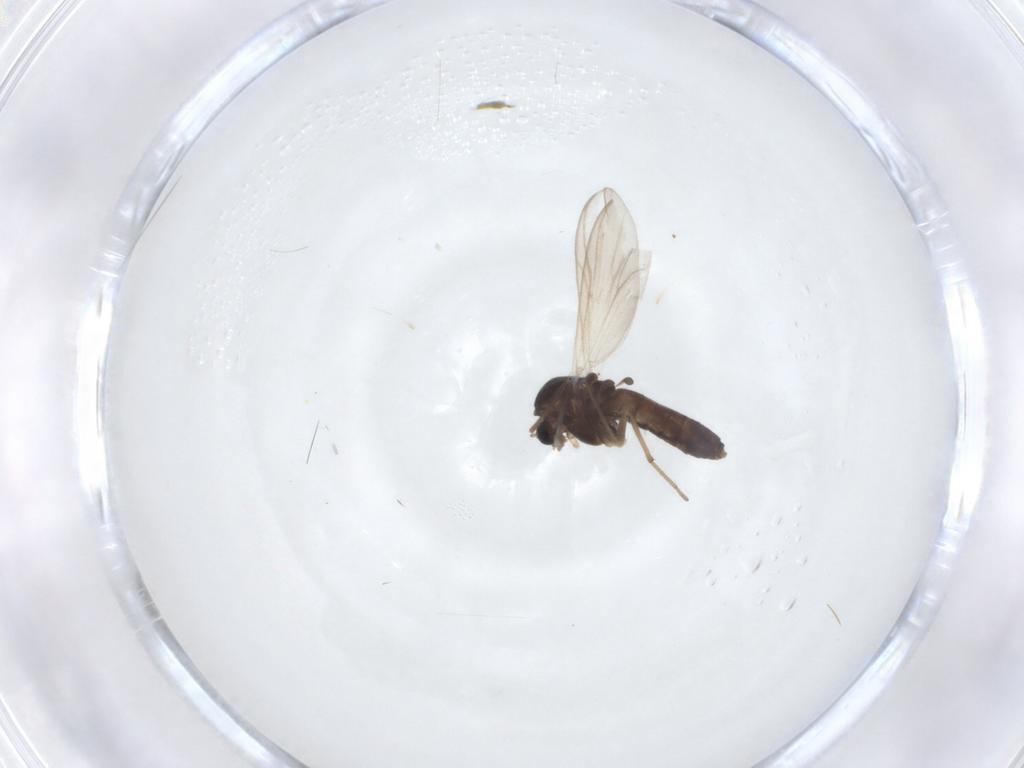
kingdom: Animalia
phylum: Arthropoda
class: Insecta
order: Diptera
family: Chironomidae
